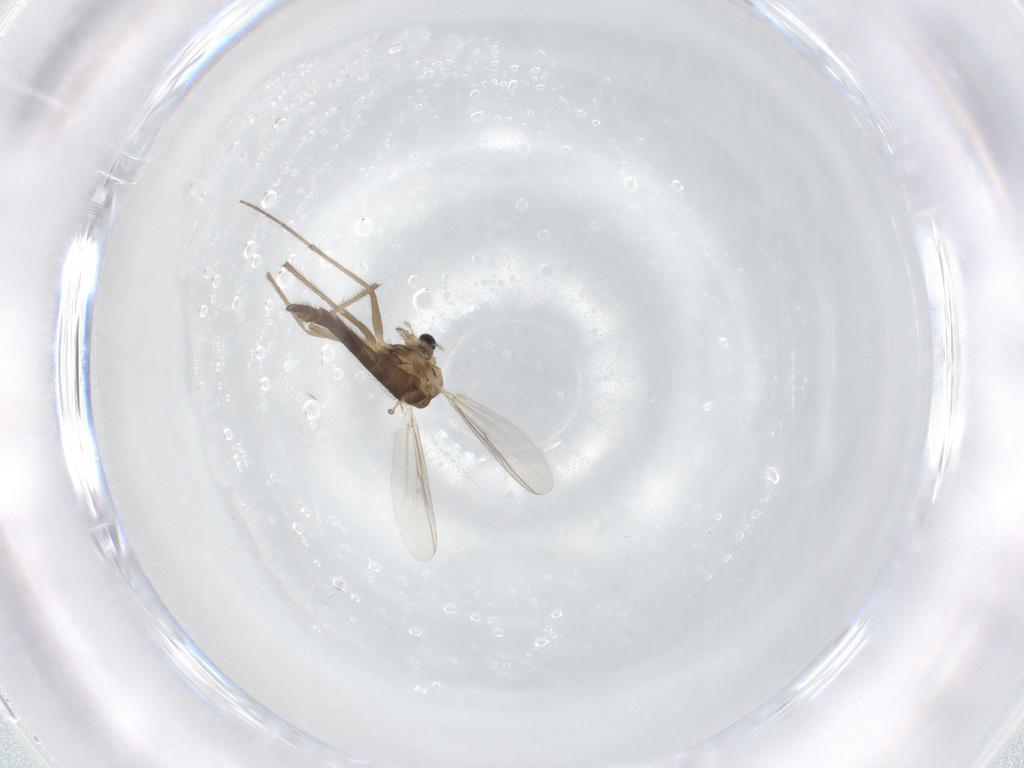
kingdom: Animalia
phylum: Arthropoda
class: Insecta
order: Diptera
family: Chironomidae
